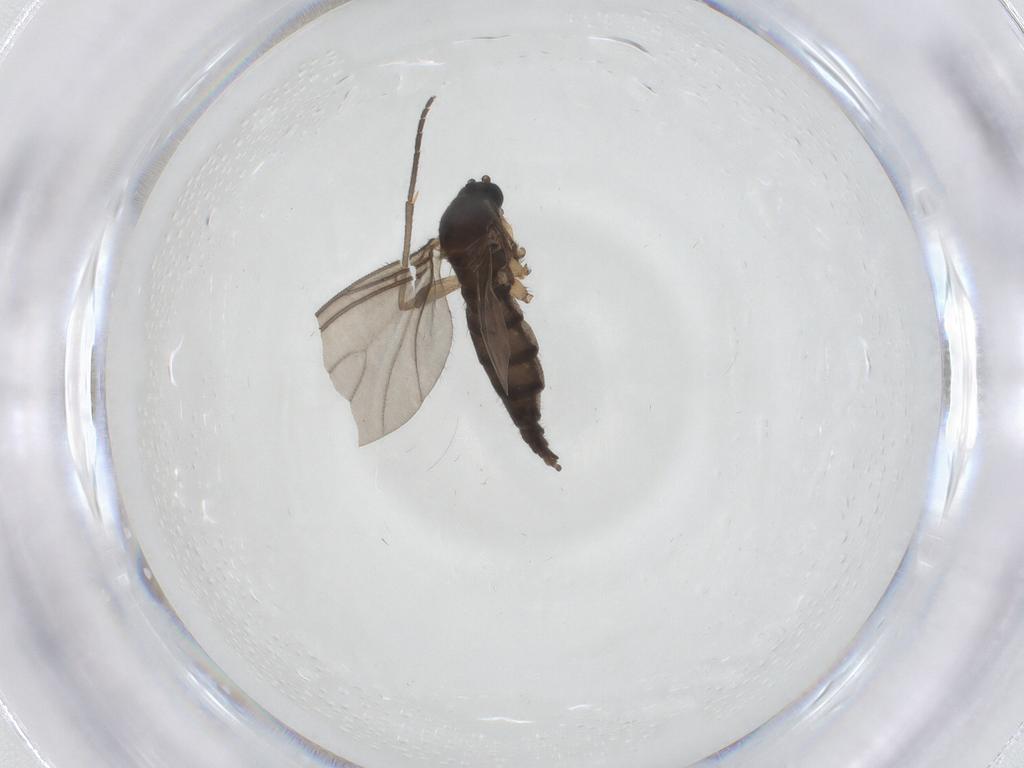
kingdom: Animalia
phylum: Arthropoda
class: Insecta
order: Diptera
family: Sciaridae
